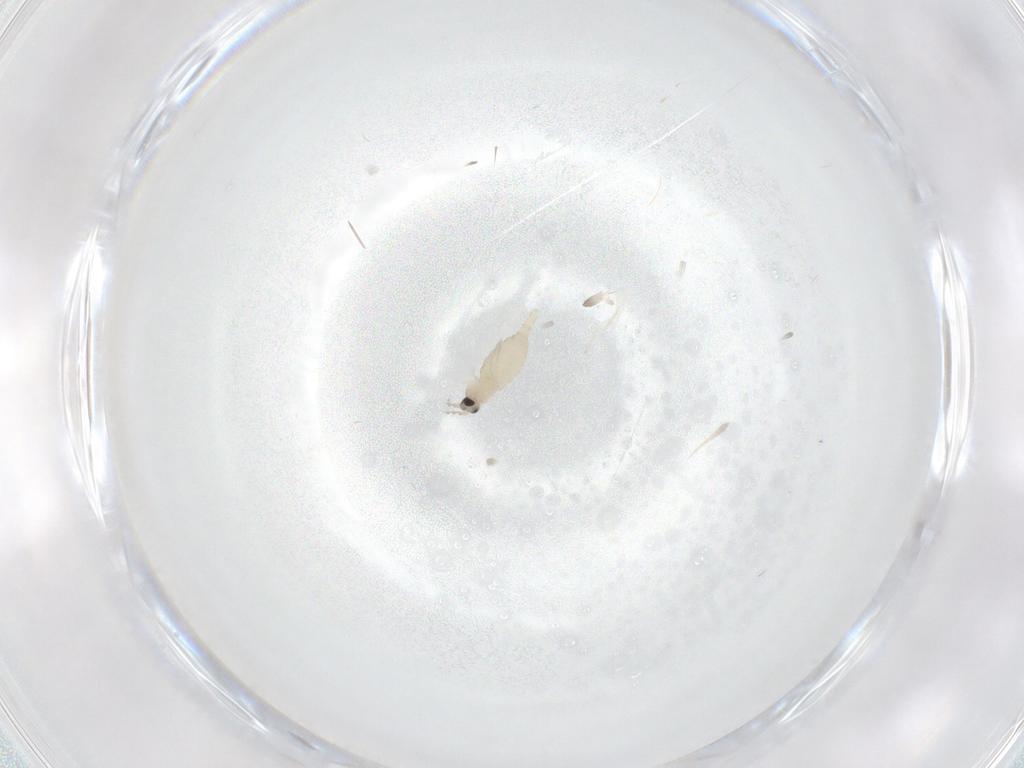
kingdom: Animalia
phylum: Arthropoda
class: Insecta
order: Diptera
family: Cecidomyiidae
